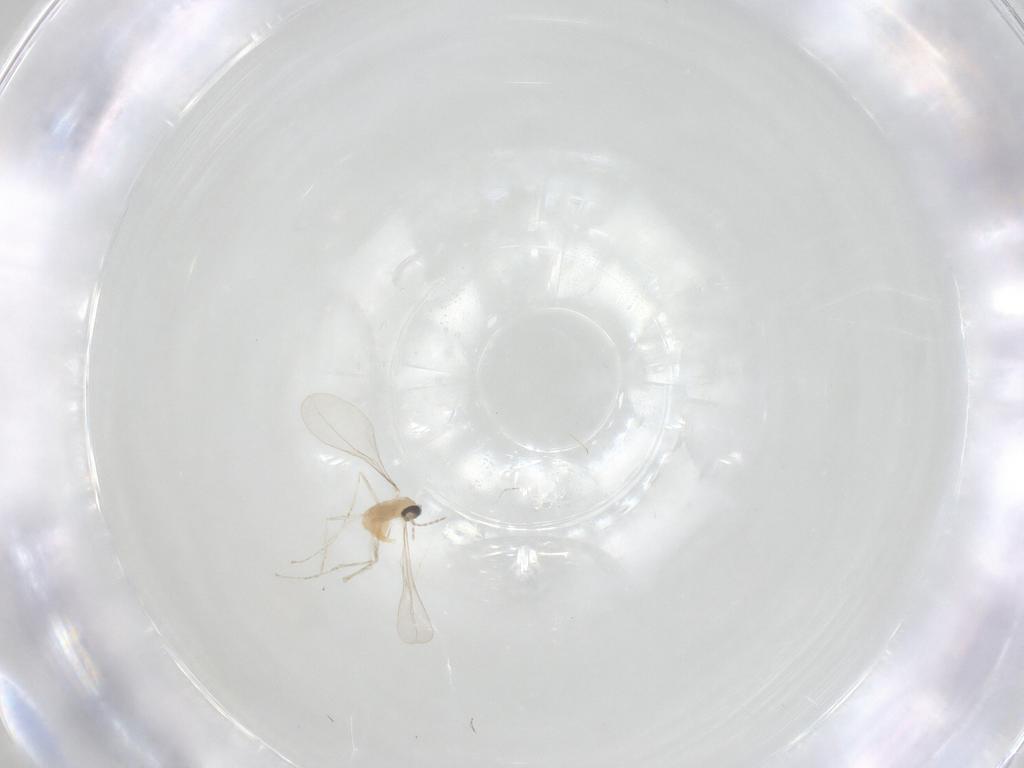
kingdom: Animalia
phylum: Arthropoda
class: Insecta
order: Diptera
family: Cecidomyiidae
